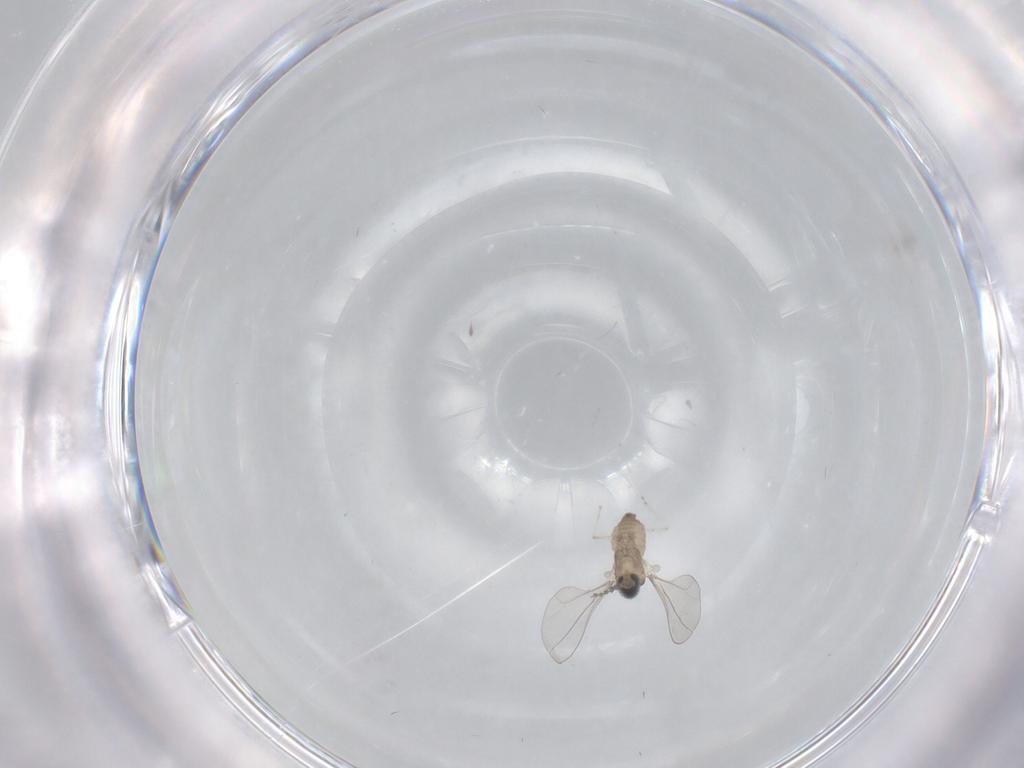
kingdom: Animalia
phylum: Arthropoda
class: Insecta
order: Diptera
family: Cecidomyiidae
